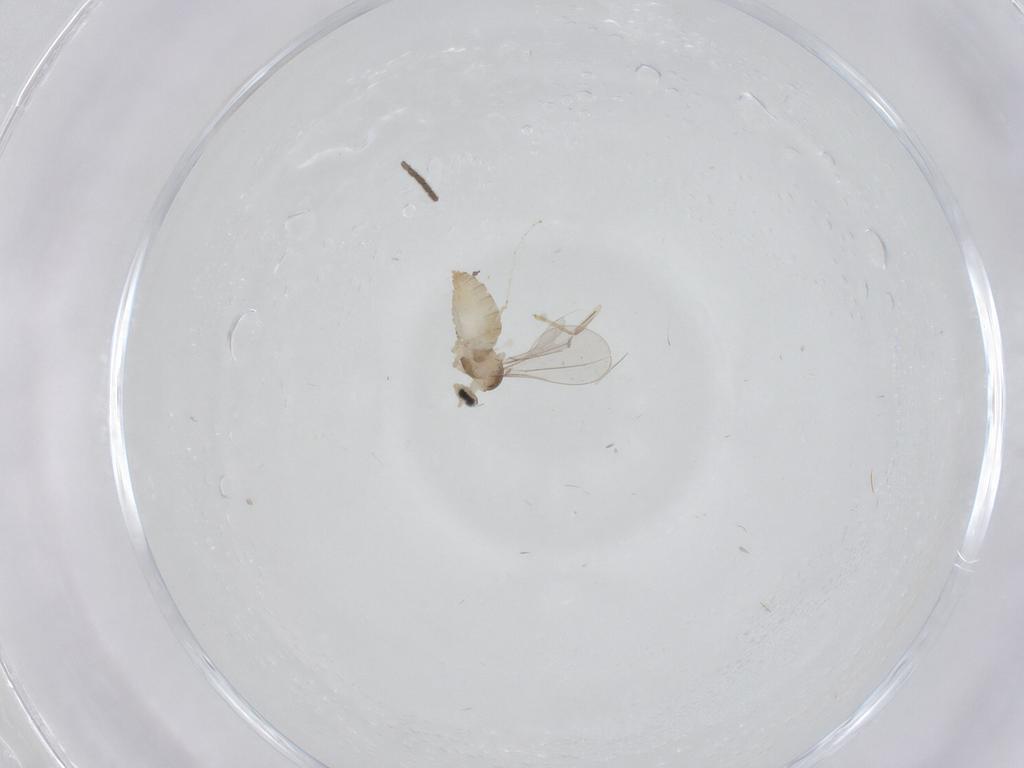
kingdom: Animalia
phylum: Arthropoda
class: Insecta
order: Diptera
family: Sciaridae
